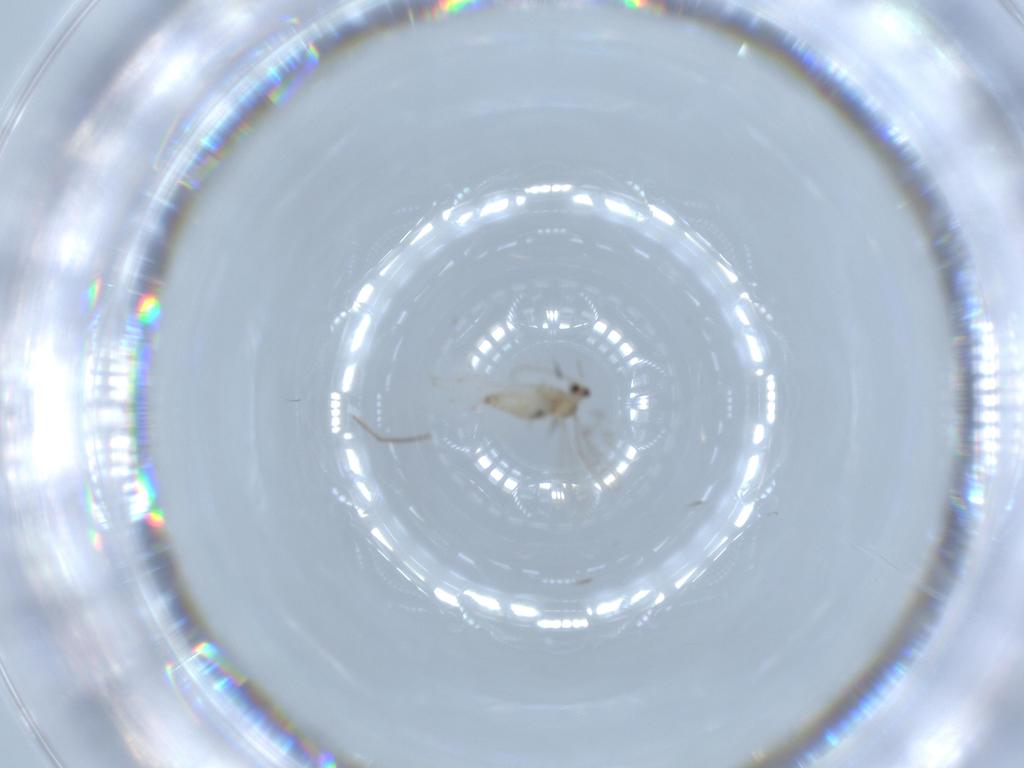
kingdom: Animalia
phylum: Arthropoda
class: Insecta
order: Diptera
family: Cecidomyiidae
